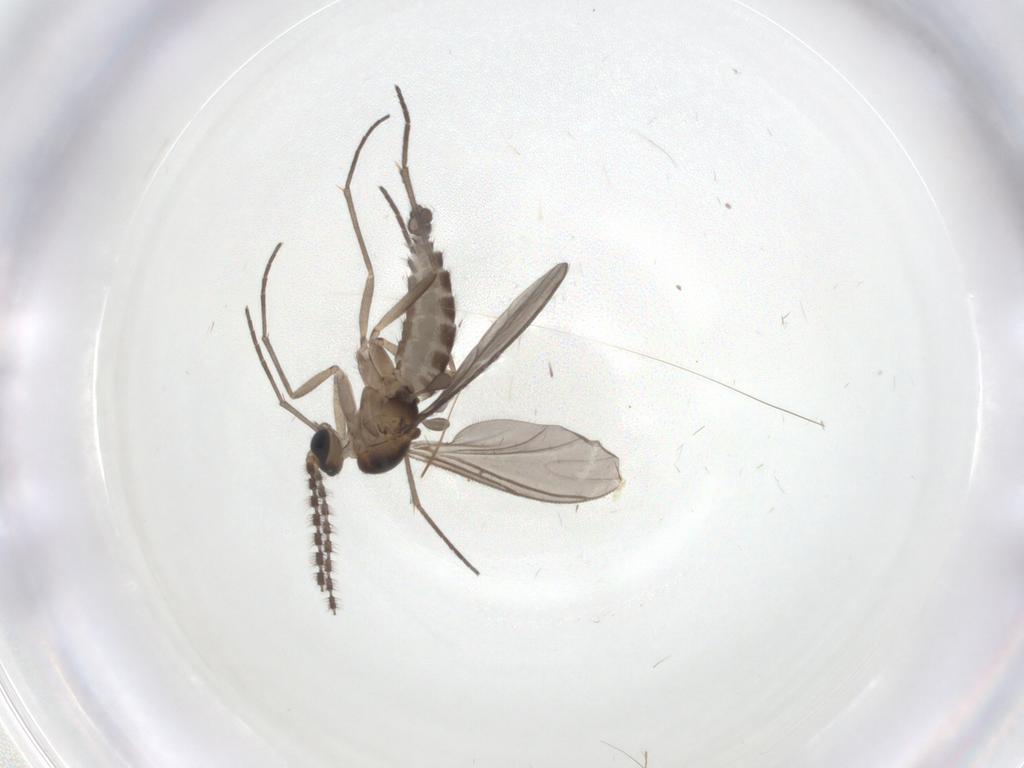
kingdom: Animalia
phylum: Arthropoda
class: Insecta
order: Diptera
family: Sciaridae
